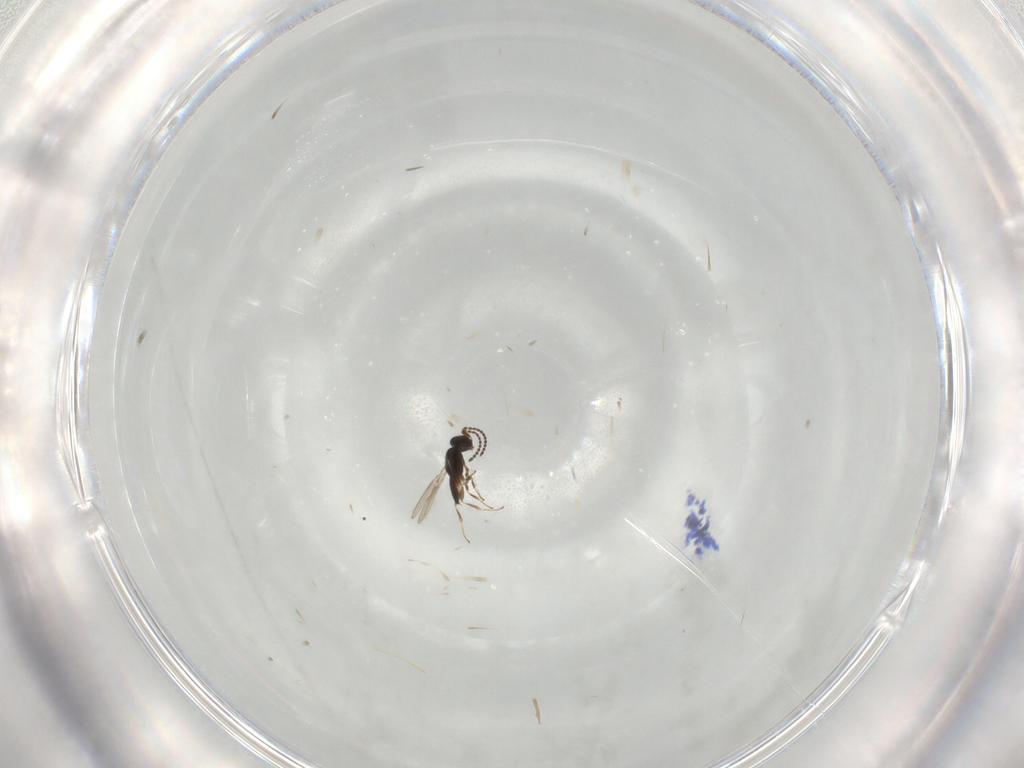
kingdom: Animalia
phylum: Arthropoda
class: Insecta
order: Hymenoptera
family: Scelionidae
